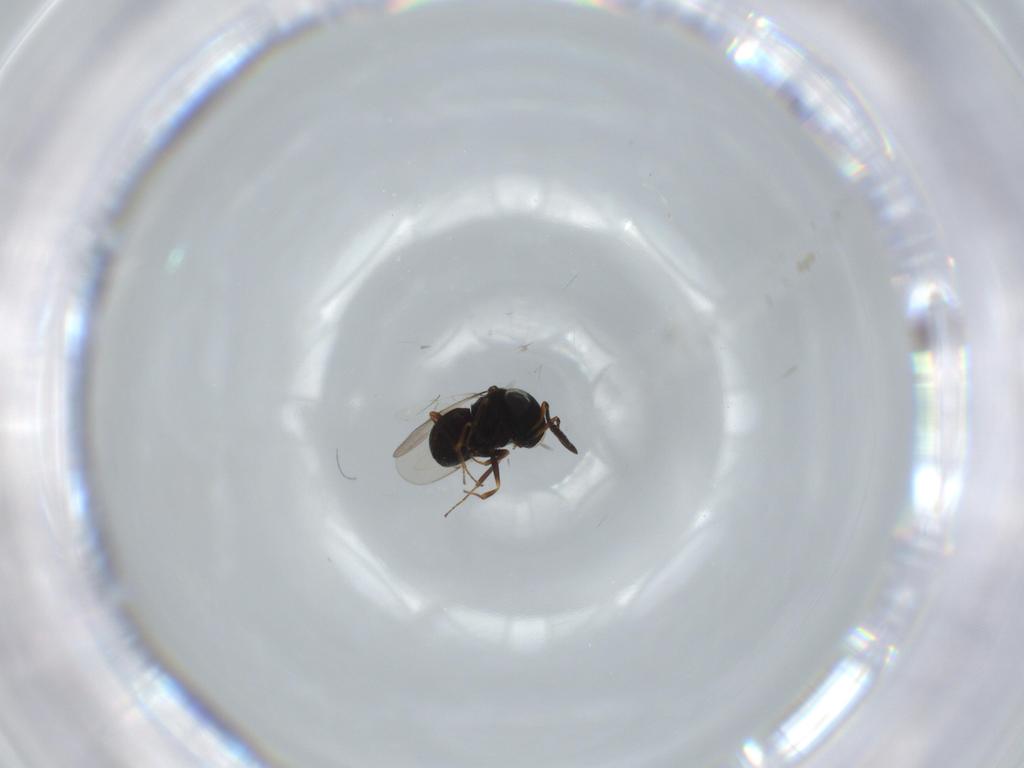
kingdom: Animalia
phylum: Arthropoda
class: Insecta
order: Hymenoptera
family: Scelionidae
